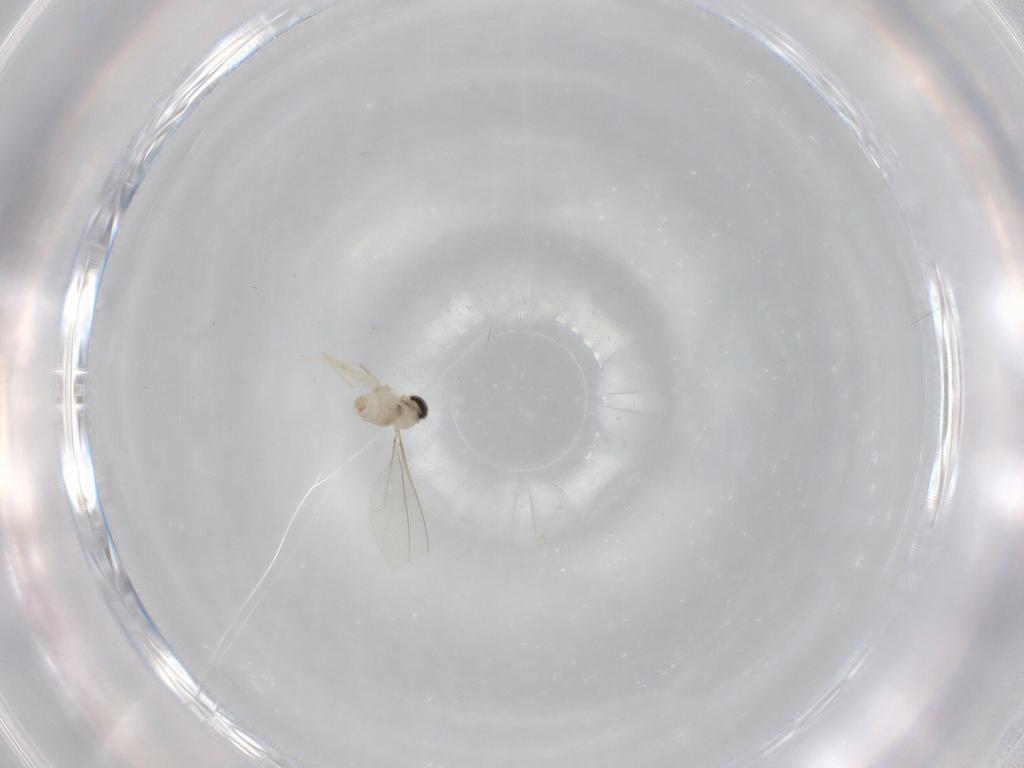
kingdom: Animalia
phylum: Arthropoda
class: Insecta
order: Diptera
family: Cecidomyiidae
